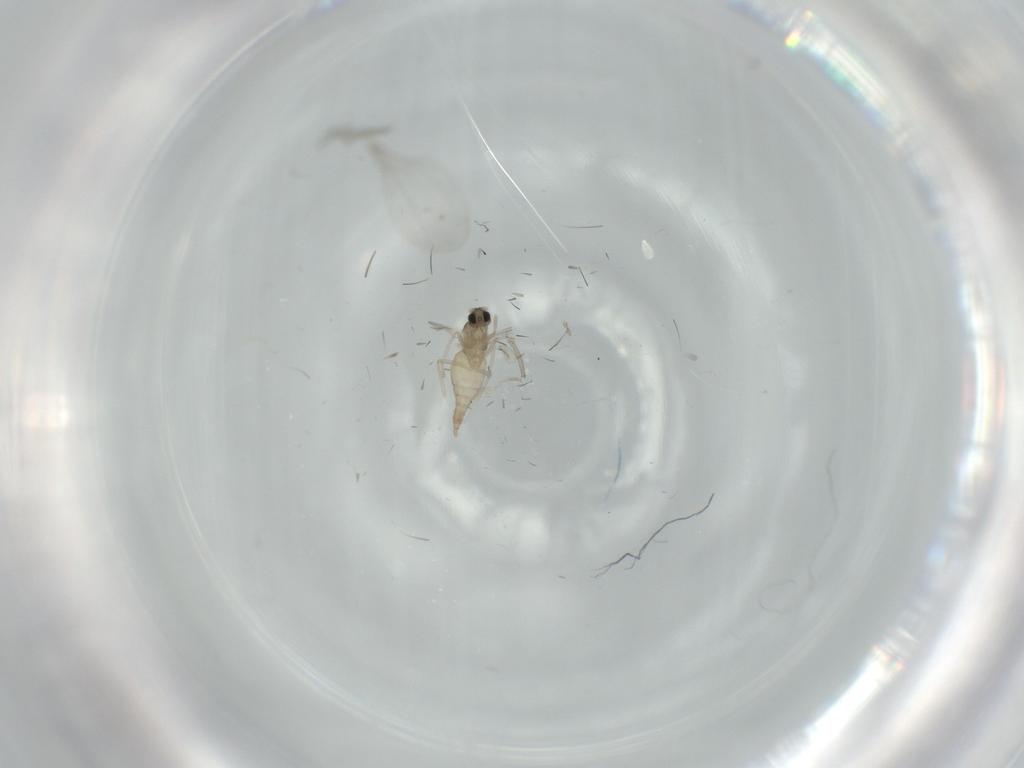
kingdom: Animalia
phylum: Arthropoda
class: Insecta
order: Diptera
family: Cecidomyiidae
